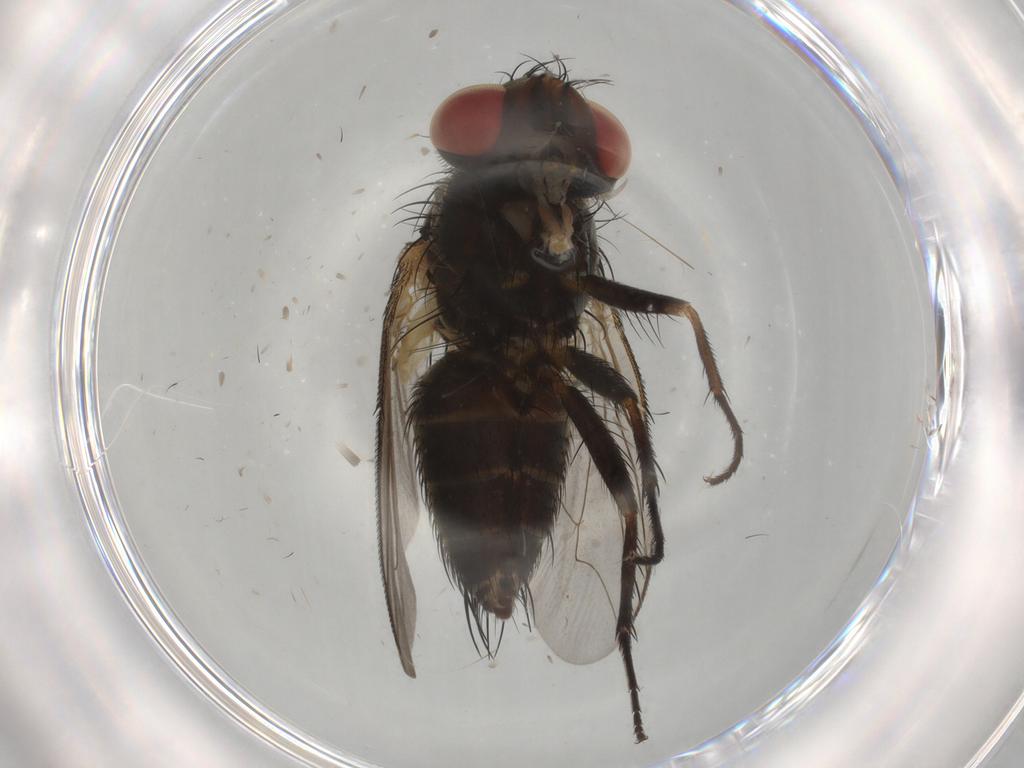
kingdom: Animalia
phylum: Arthropoda
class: Insecta
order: Diptera
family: Sarcophagidae
